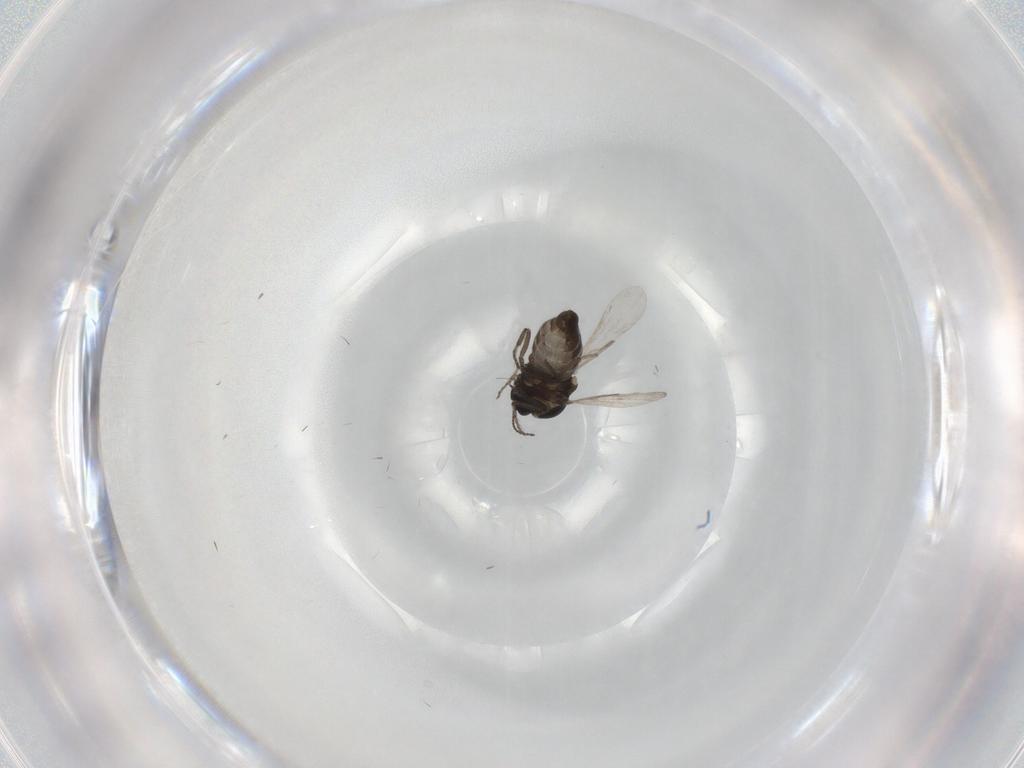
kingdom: Animalia
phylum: Arthropoda
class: Insecta
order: Diptera
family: Ceratopogonidae
